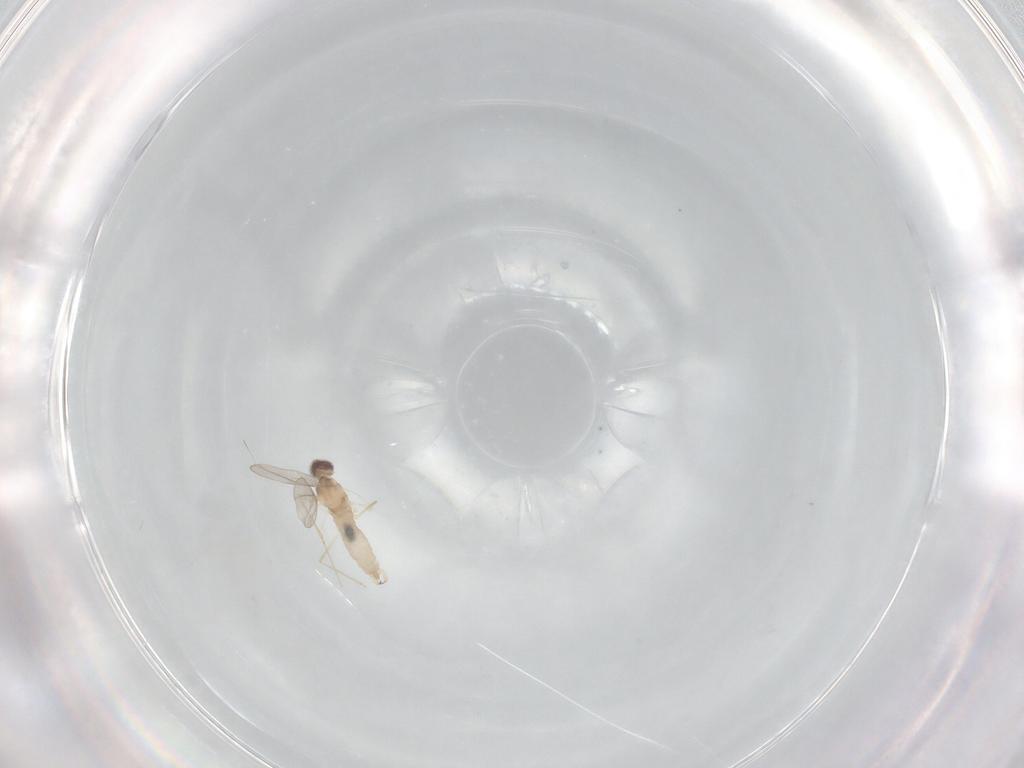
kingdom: Animalia
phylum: Arthropoda
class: Insecta
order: Diptera
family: Cecidomyiidae
